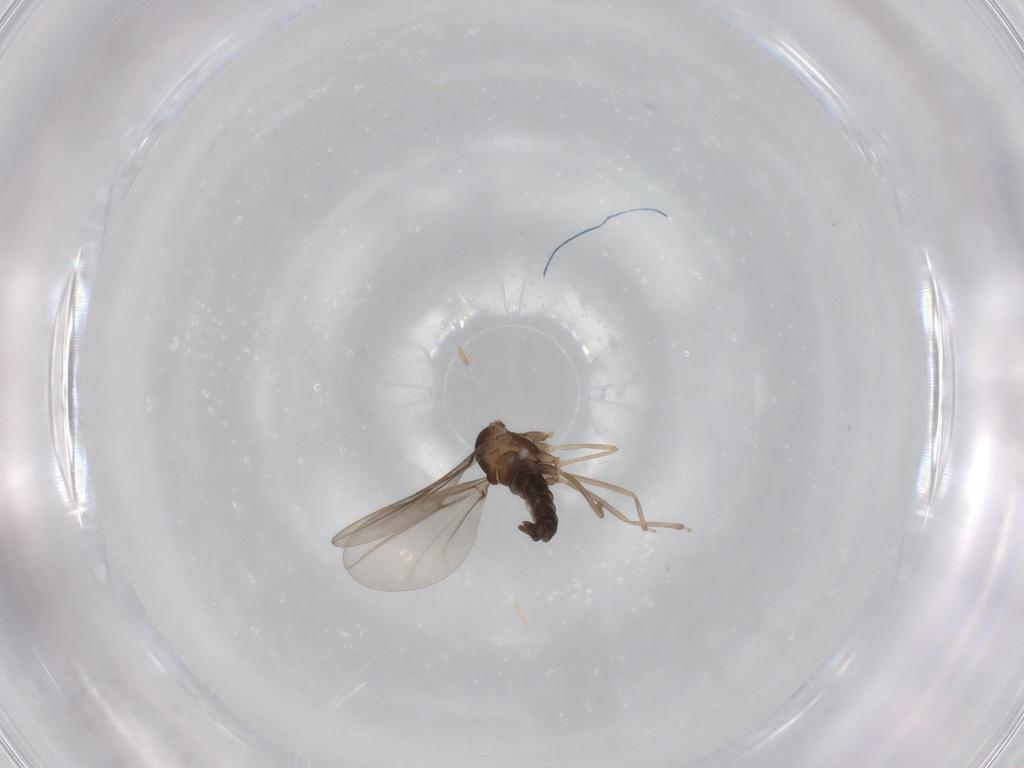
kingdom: Animalia
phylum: Arthropoda
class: Insecta
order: Diptera
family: Cecidomyiidae
